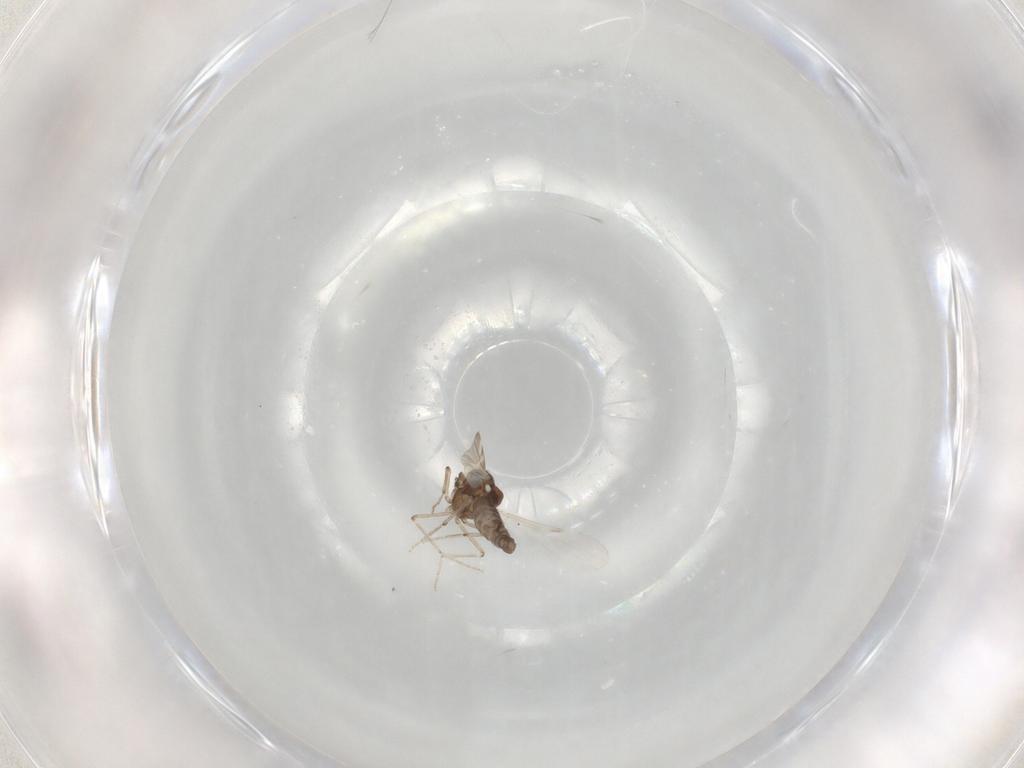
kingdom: Animalia
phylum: Arthropoda
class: Insecta
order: Diptera
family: Ceratopogonidae
